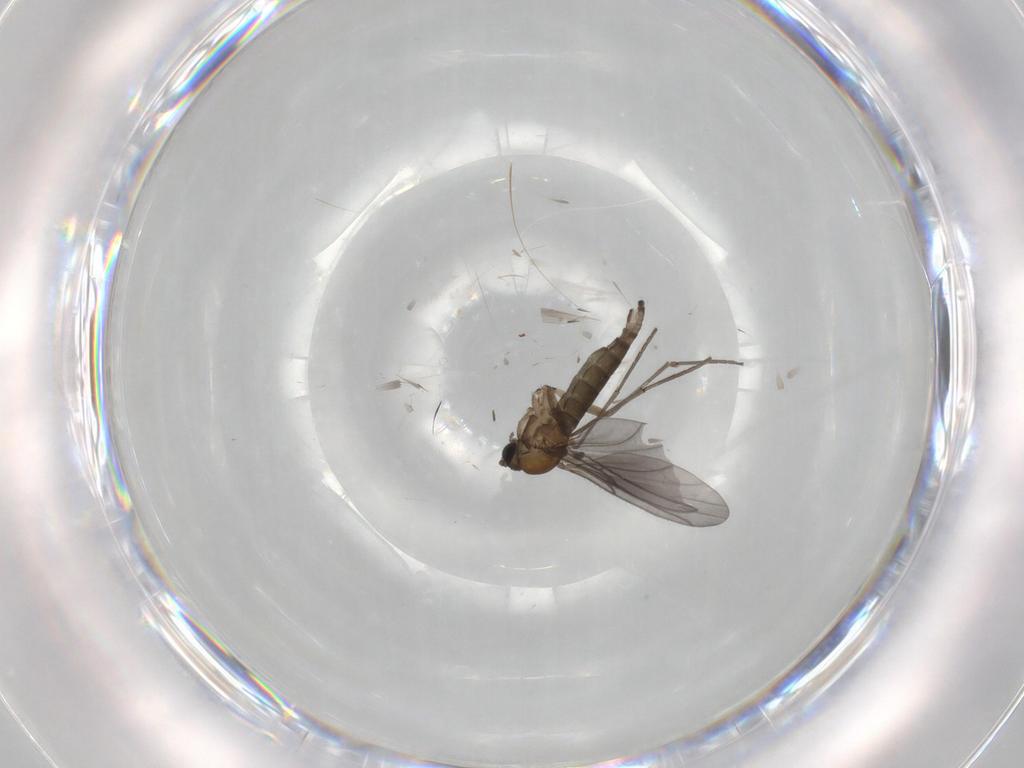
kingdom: Animalia
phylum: Arthropoda
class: Insecta
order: Diptera
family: Sciaridae
